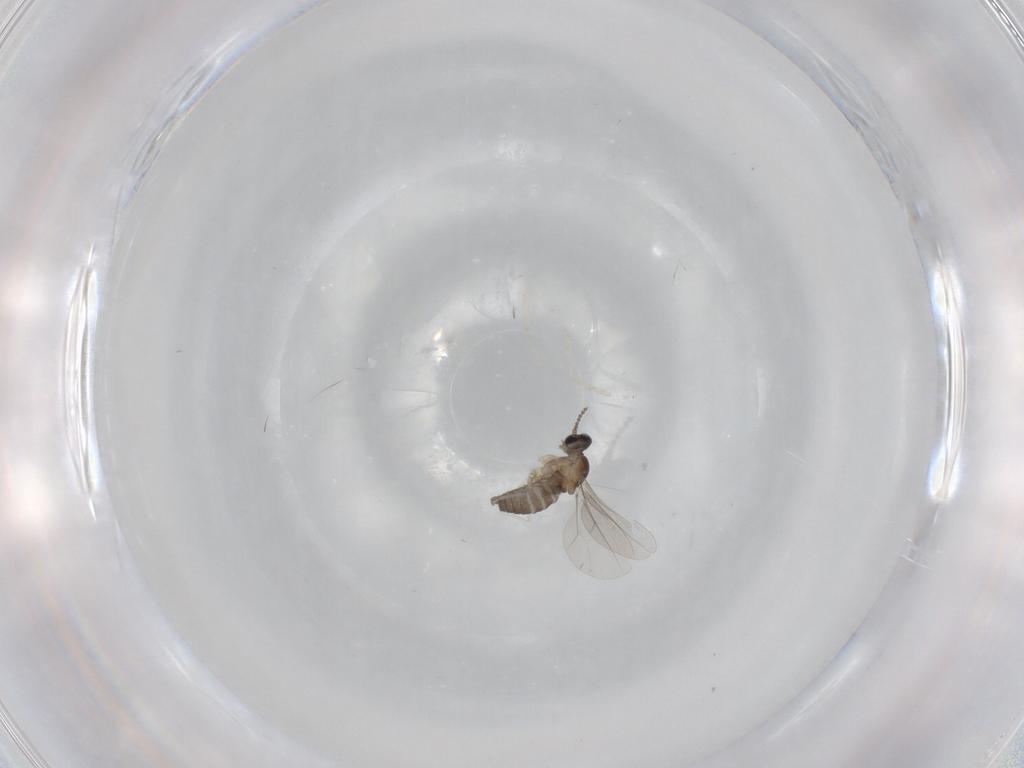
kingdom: Animalia
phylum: Arthropoda
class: Insecta
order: Diptera
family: Cecidomyiidae
